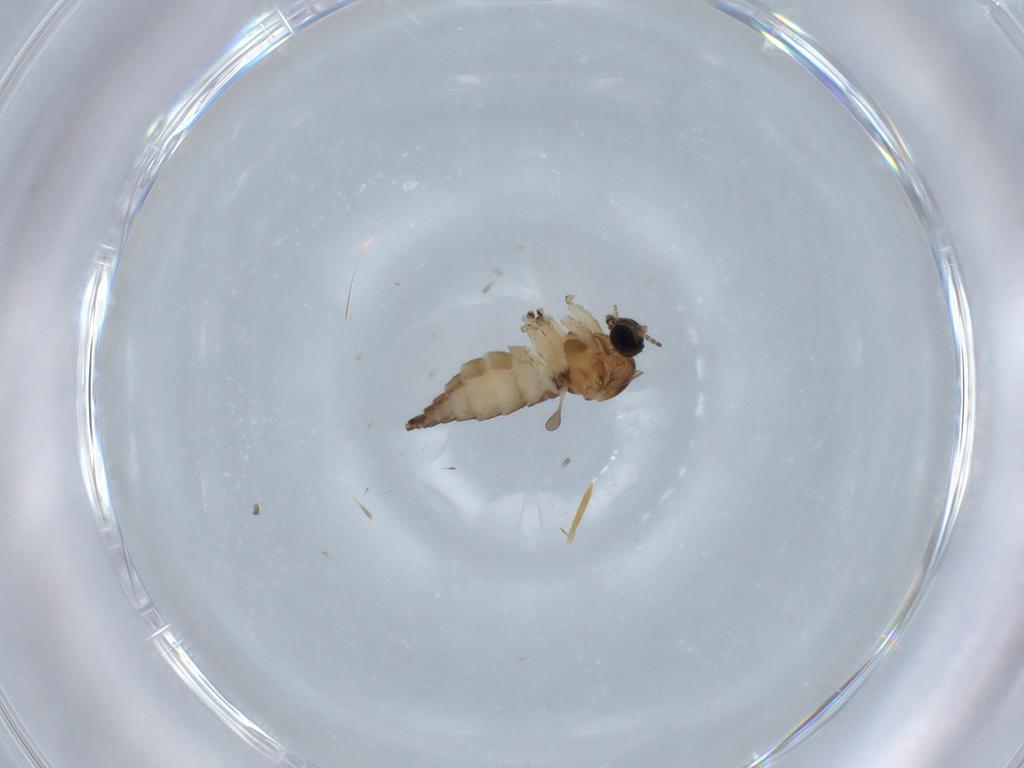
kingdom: Animalia
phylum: Arthropoda
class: Insecta
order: Diptera
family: Sciaridae
